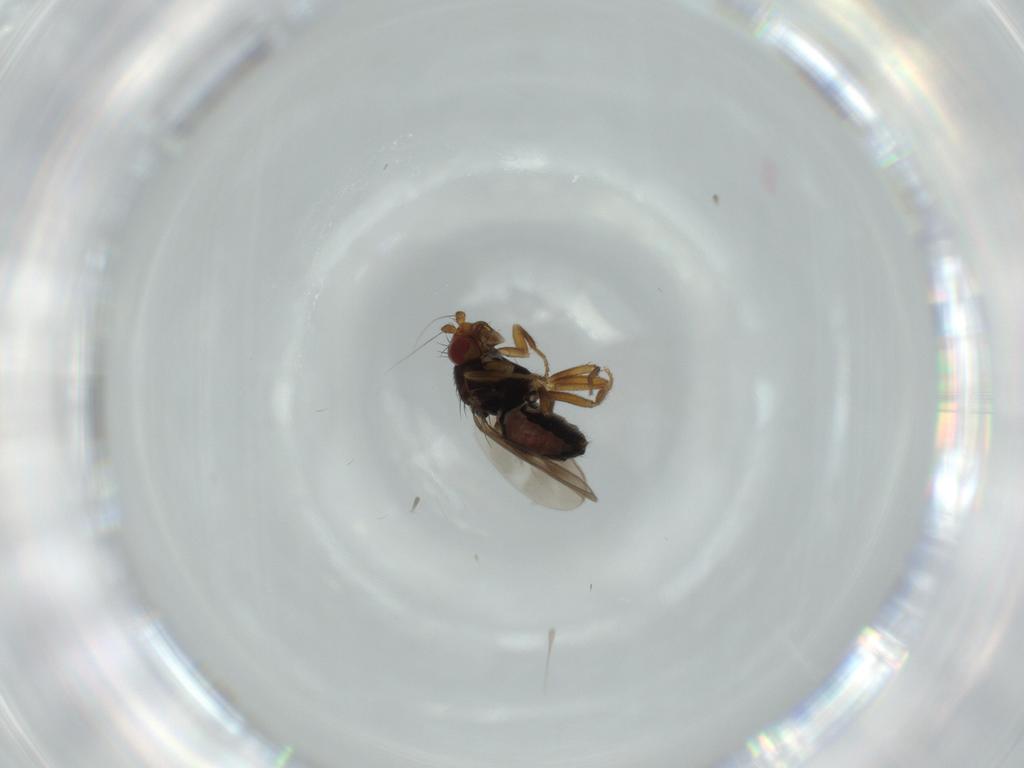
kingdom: Animalia
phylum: Arthropoda
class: Insecta
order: Diptera
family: Sphaeroceridae
